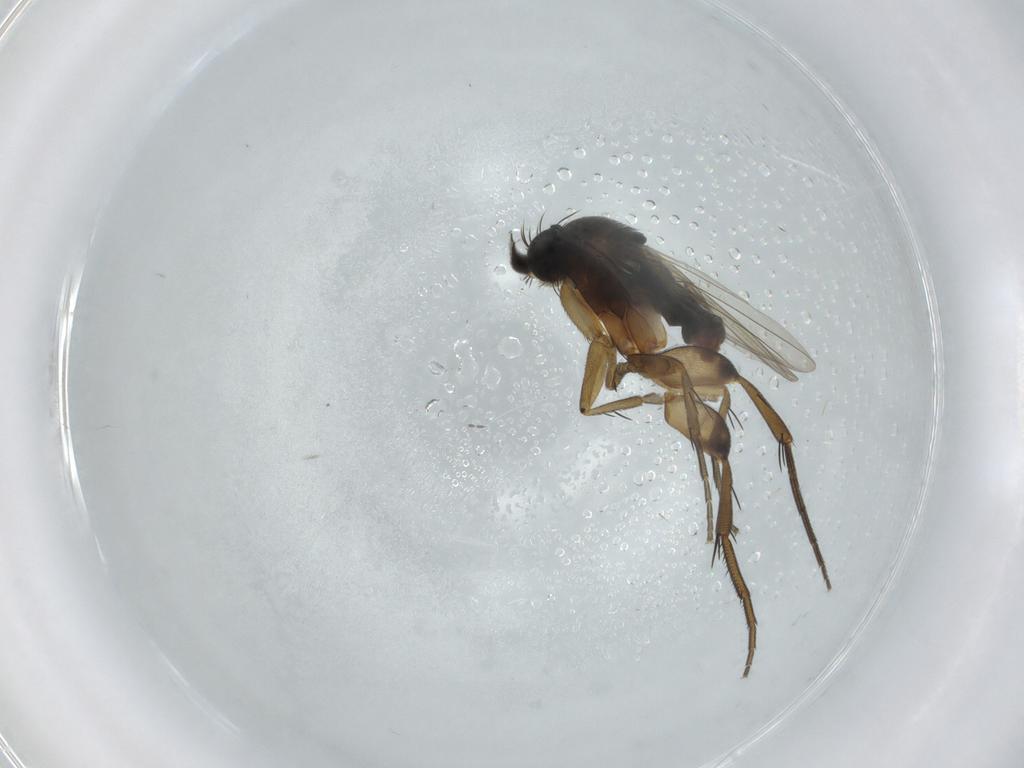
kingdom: Animalia
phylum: Arthropoda
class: Insecta
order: Diptera
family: Phoridae
